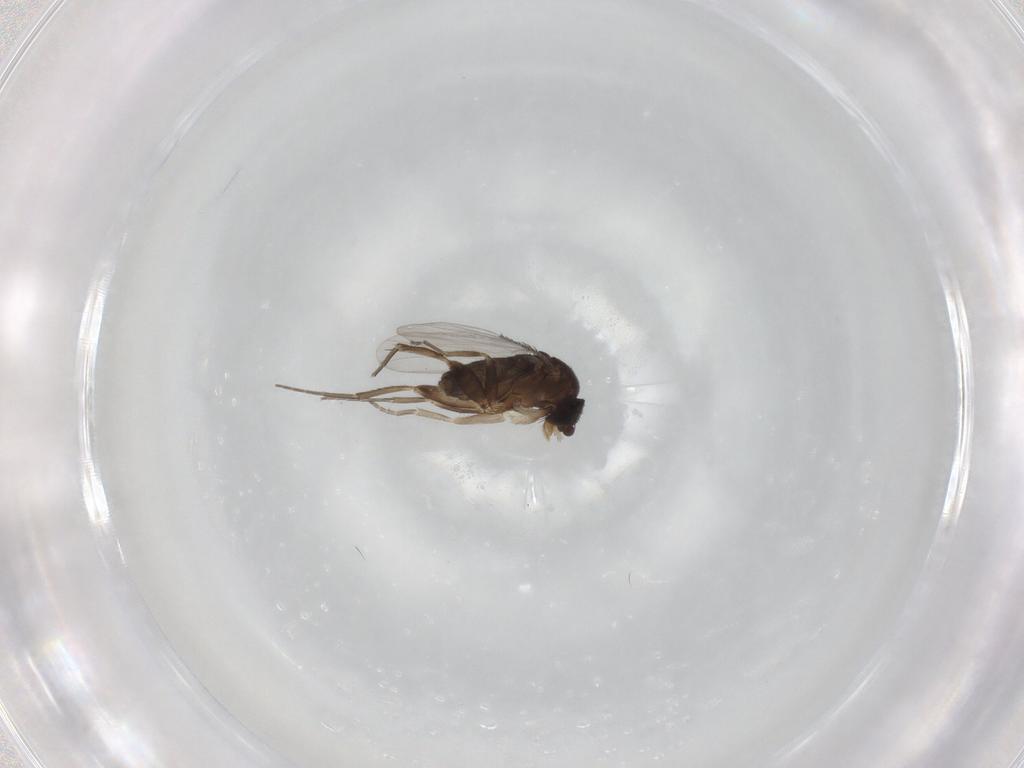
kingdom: Animalia
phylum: Arthropoda
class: Insecta
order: Diptera
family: Phoridae
